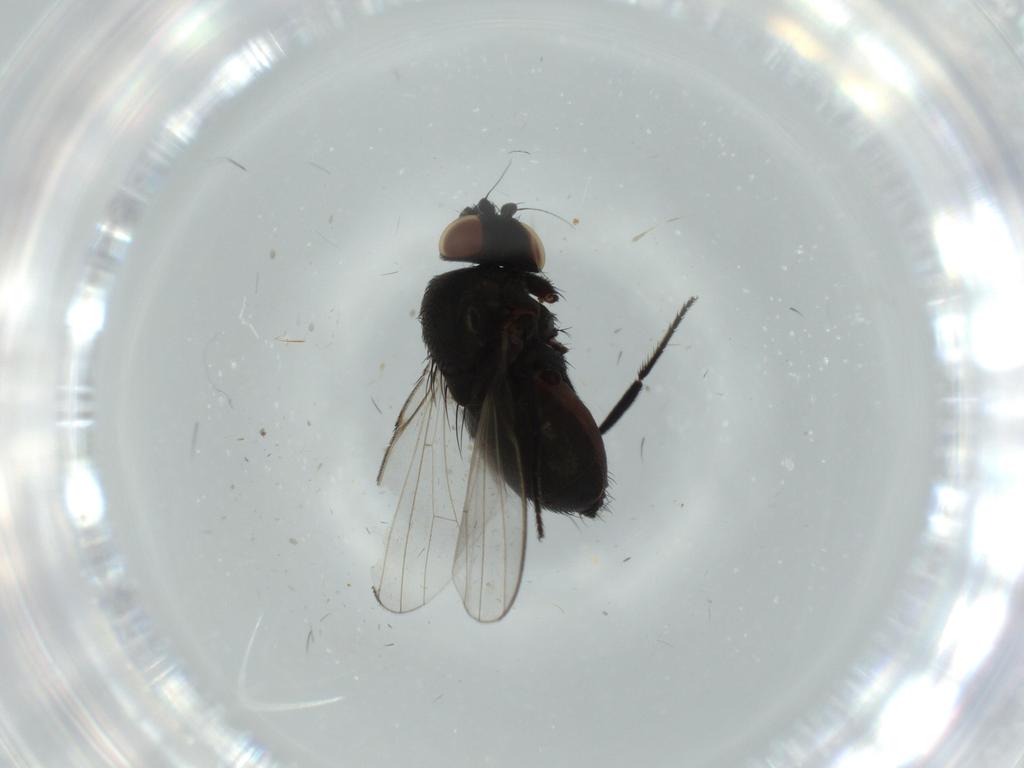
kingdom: Animalia
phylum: Arthropoda
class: Insecta
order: Diptera
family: Milichiidae
